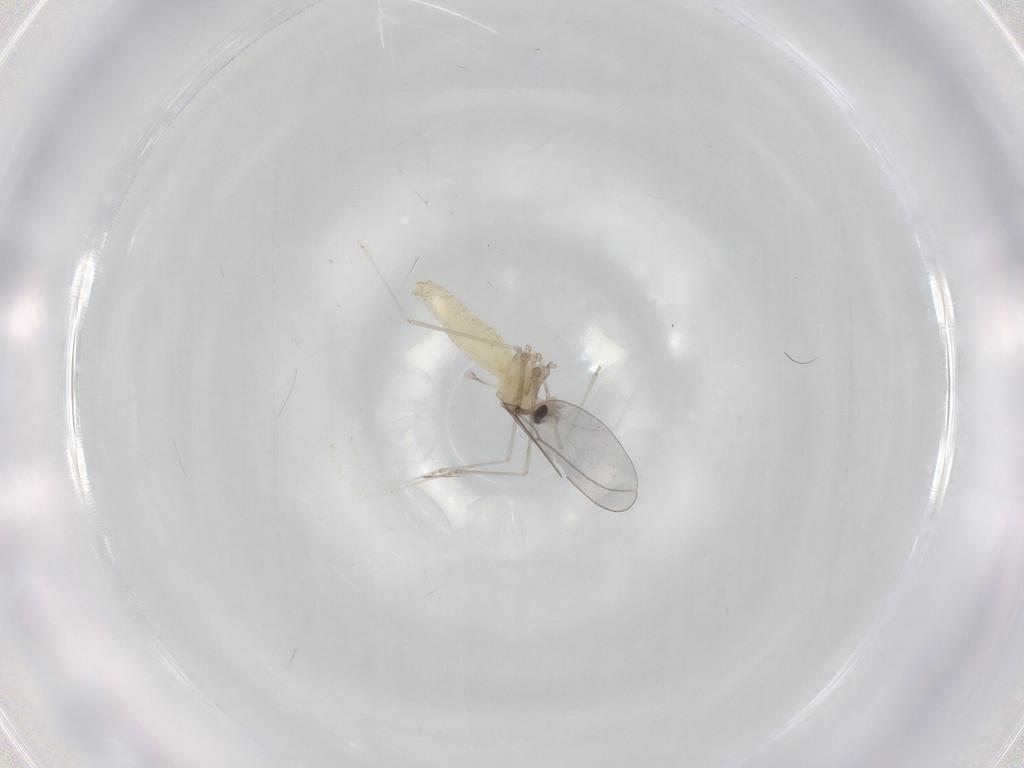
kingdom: Animalia
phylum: Arthropoda
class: Insecta
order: Diptera
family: Cecidomyiidae
